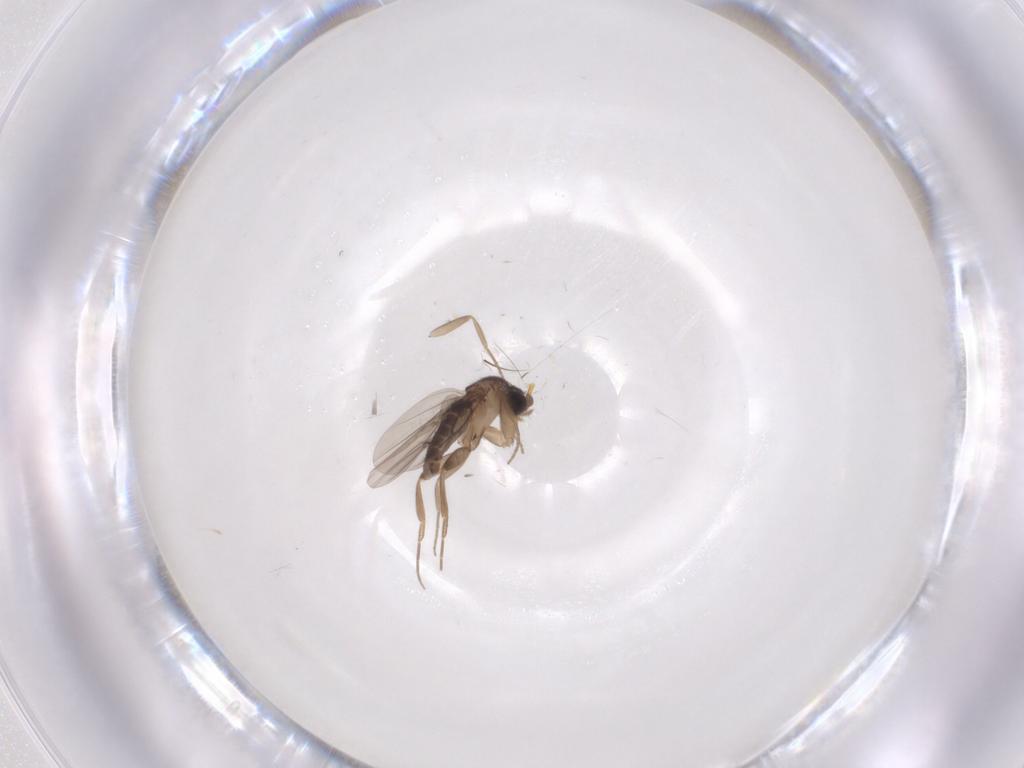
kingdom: Animalia
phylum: Arthropoda
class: Insecta
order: Diptera
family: Phoridae
